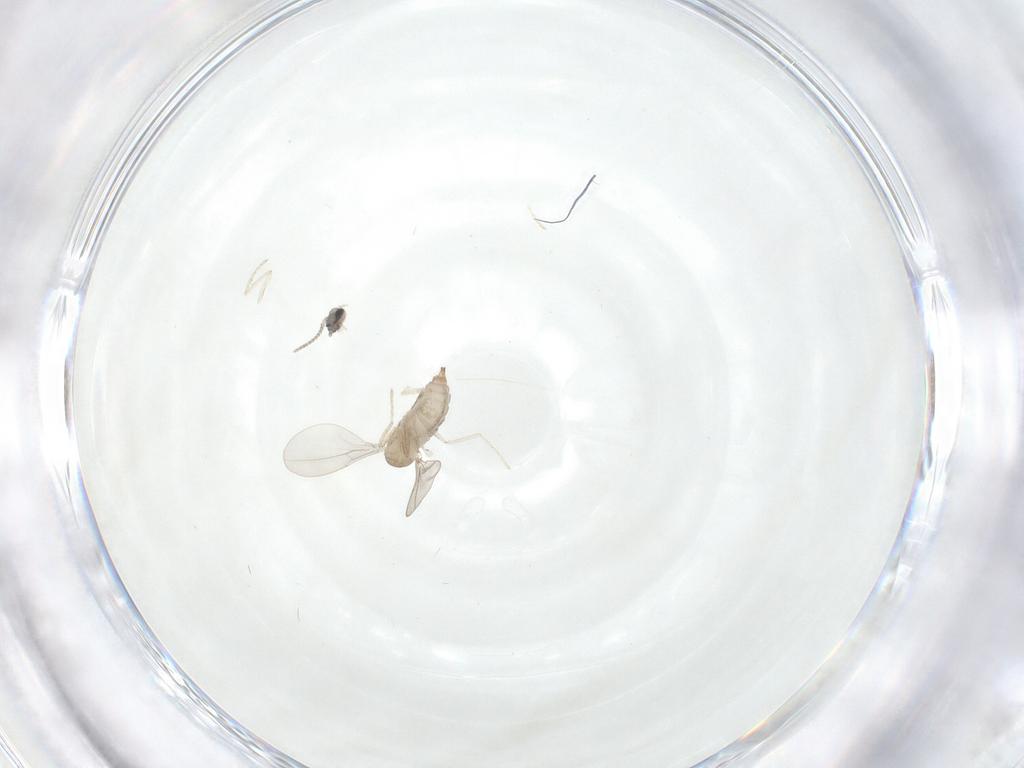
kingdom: Animalia
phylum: Arthropoda
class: Insecta
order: Diptera
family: Cecidomyiidae
